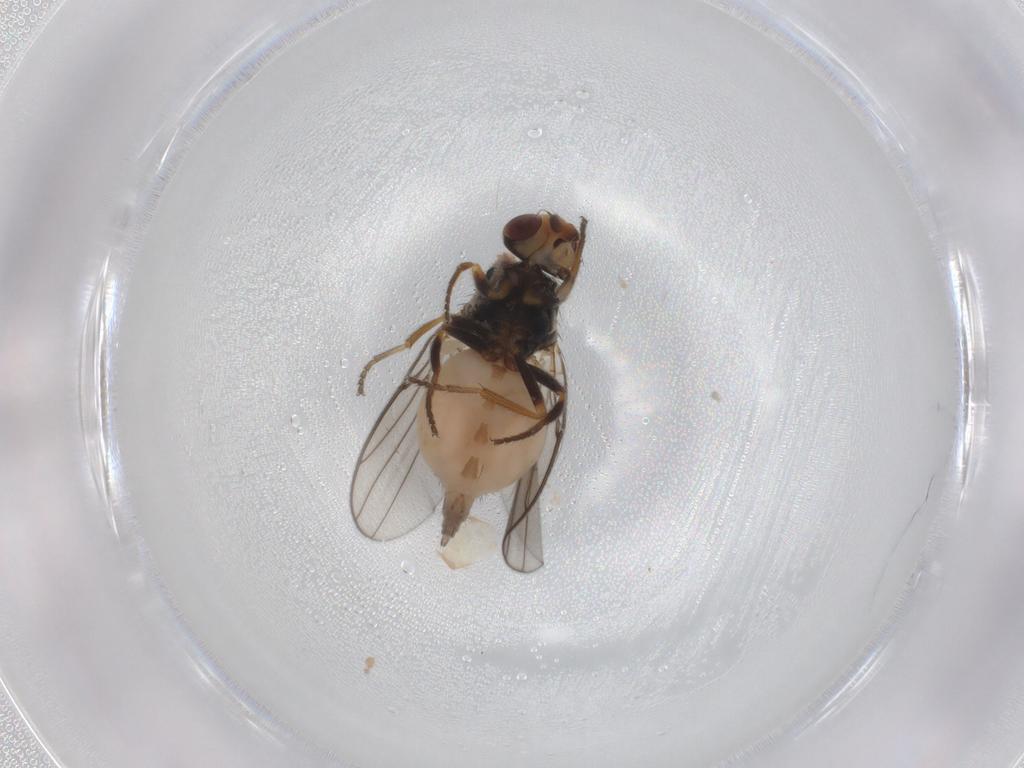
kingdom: Animalia
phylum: Arthropoda
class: Insecta
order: Diptera
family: Chloropidae
